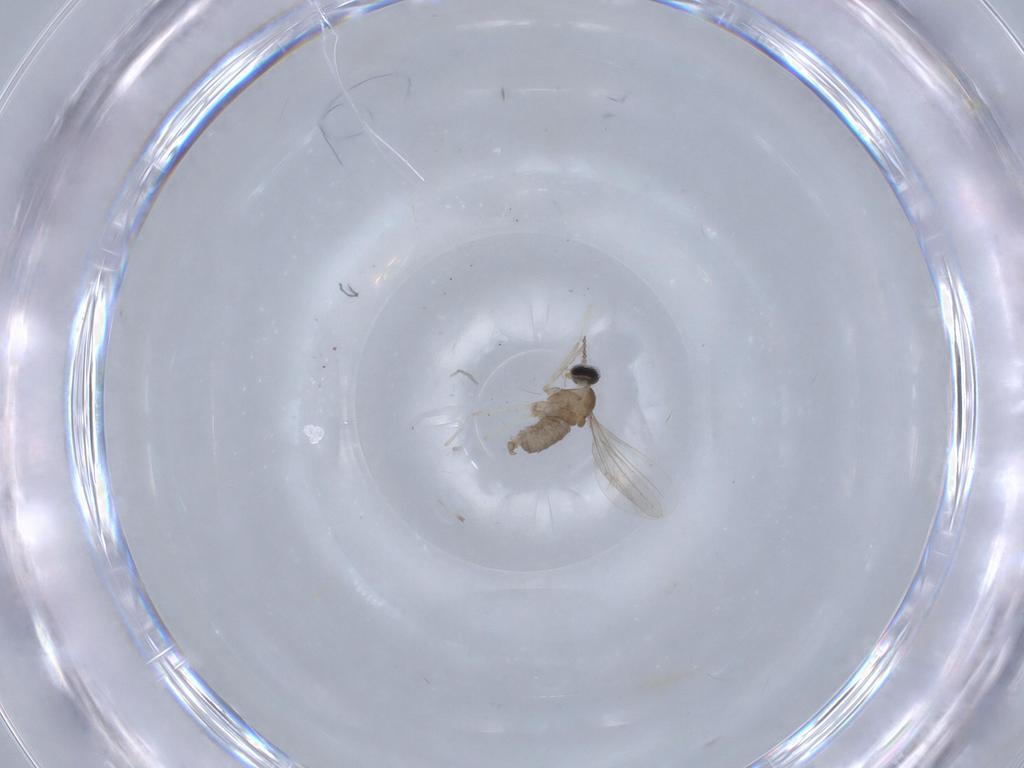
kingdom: Animalia
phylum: Arthropoda
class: Insecta
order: Diptera
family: Cecidomyiidae
